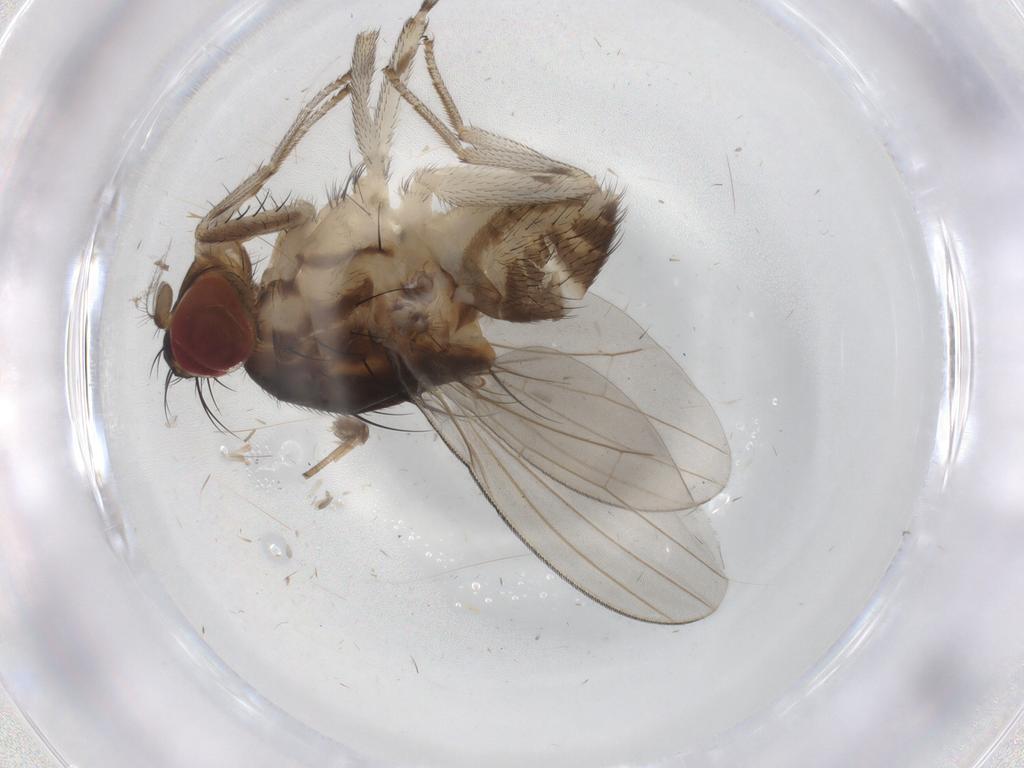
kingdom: Animalia
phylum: Arthropoda
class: Insecta
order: Diptera
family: Lauxaniidae
